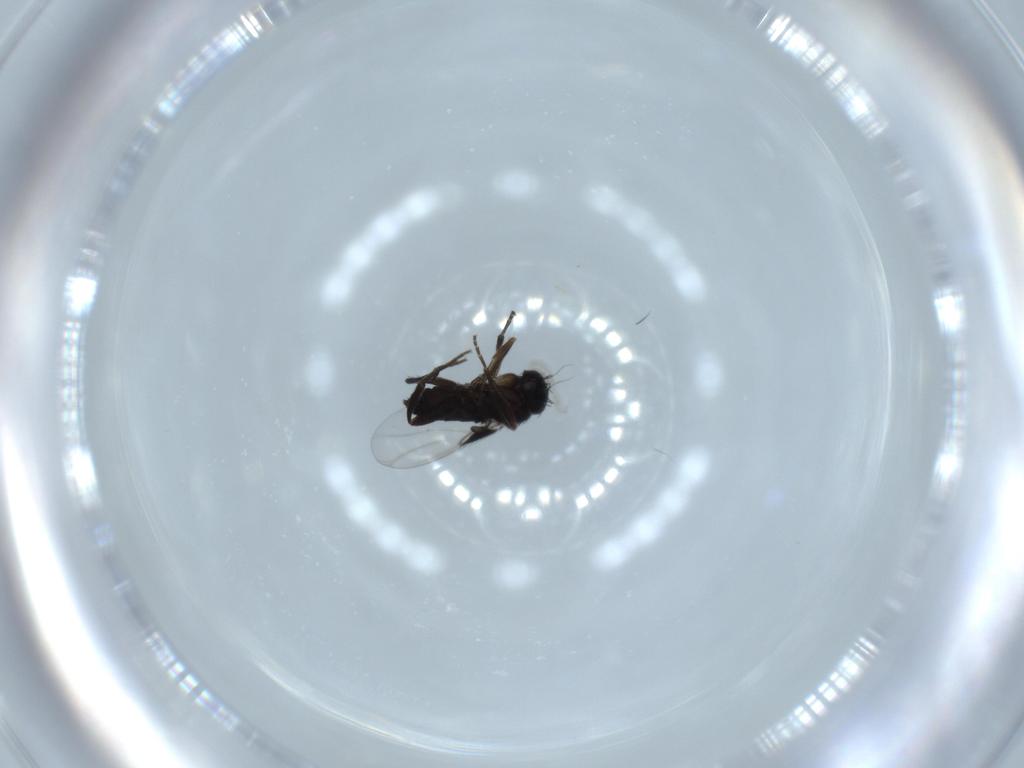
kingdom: Animalia
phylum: Arthropoda
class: Insecta
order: Diptera
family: Phoridae
